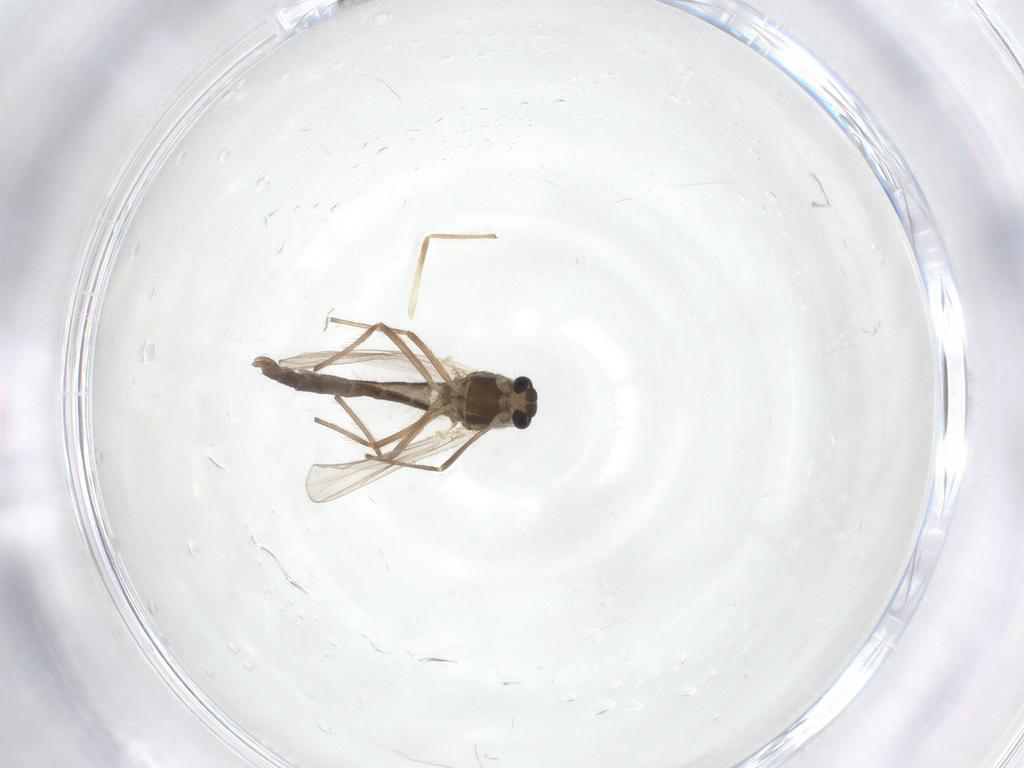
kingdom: Animalia
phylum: Arthropoda
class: Insecta
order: Diptera
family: Chironomidae
